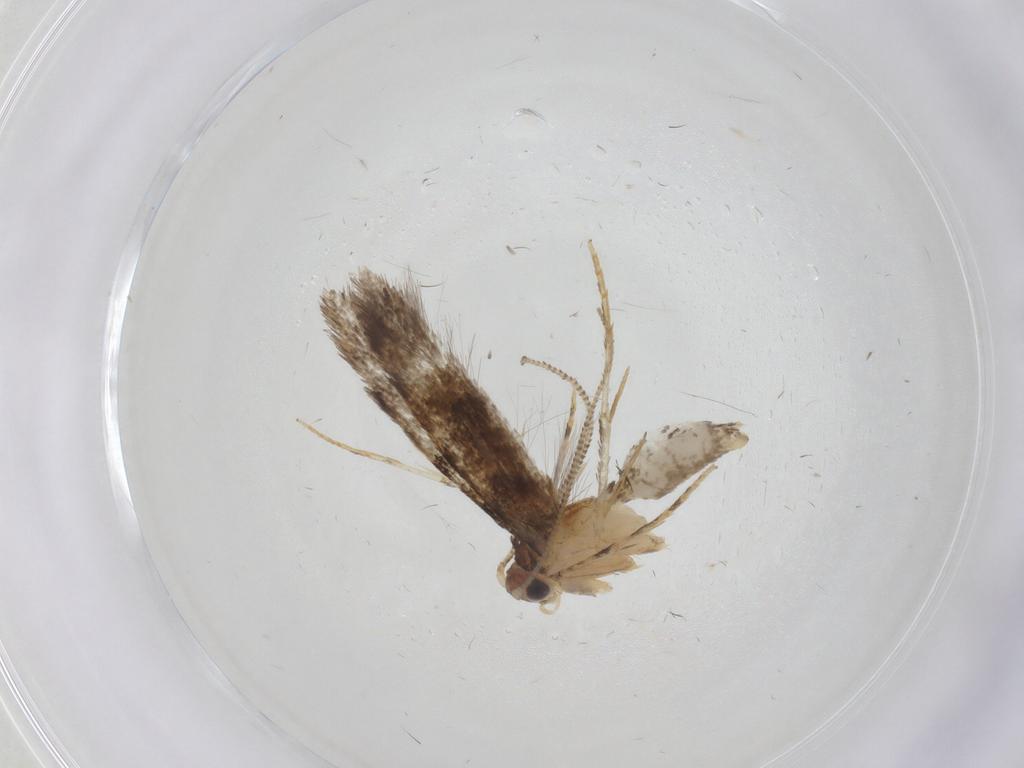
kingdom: Animalia
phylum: Arthropoda
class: Insecta
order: Lepidoptera
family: Tineidae
